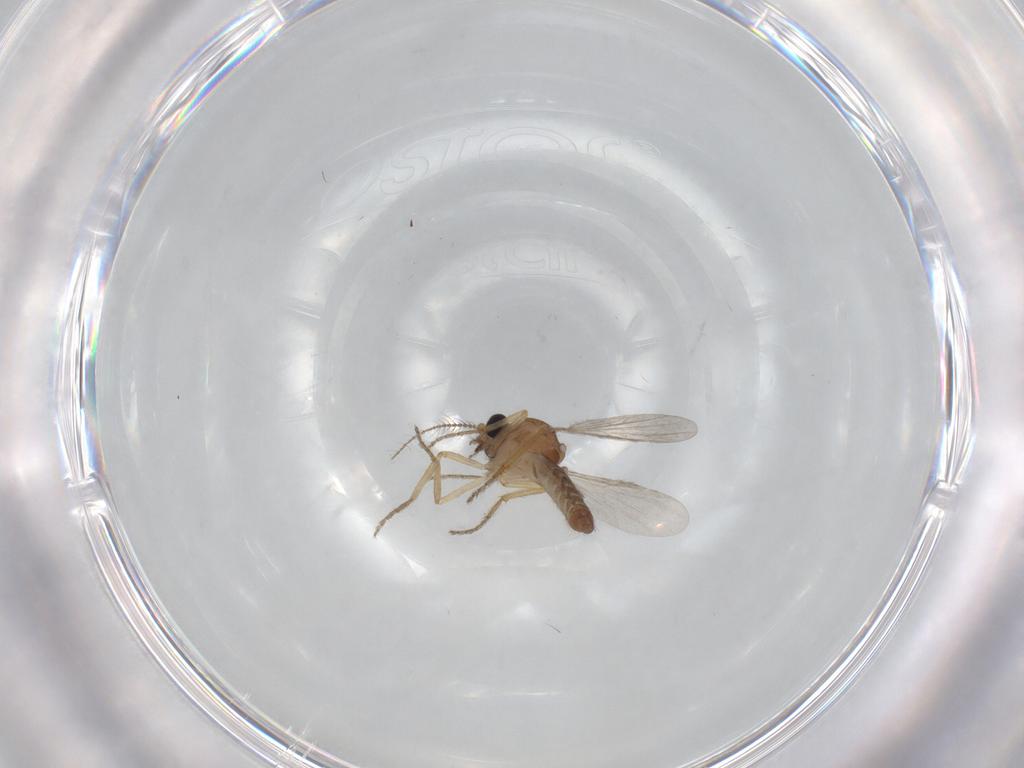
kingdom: Animalia
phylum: Arthropoda
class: Insecta
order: Diptera
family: Ceratopogonidae
